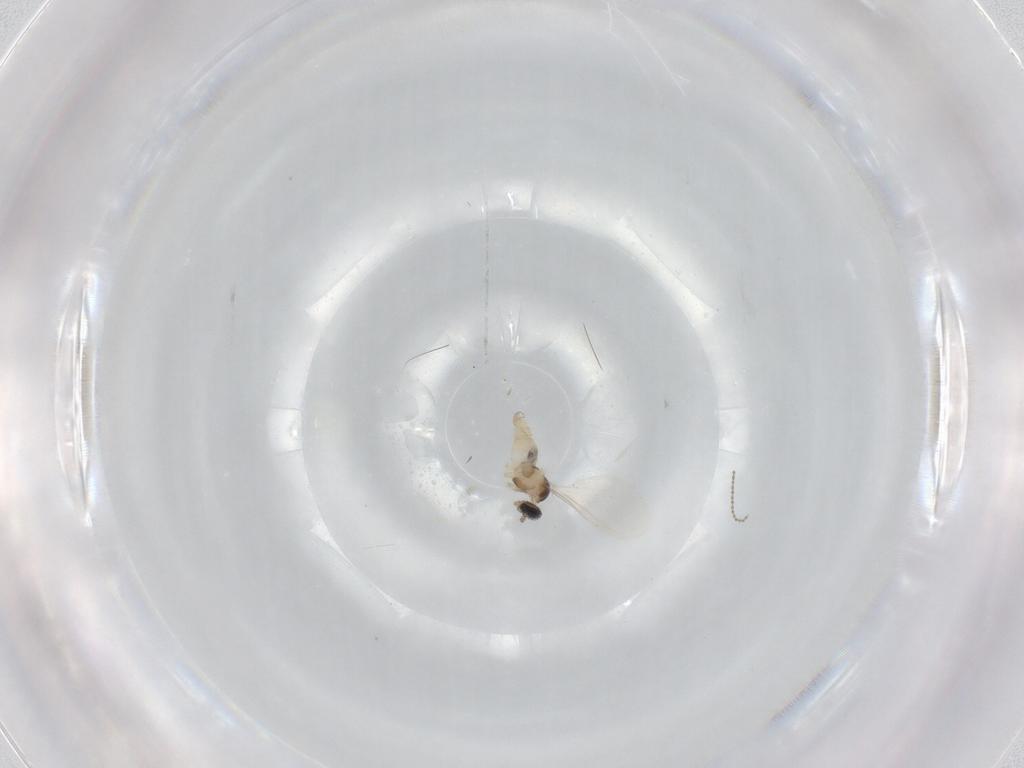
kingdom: Animalia
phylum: Arthropoda
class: Insecta
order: Diptera
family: Cecidomyiidae
